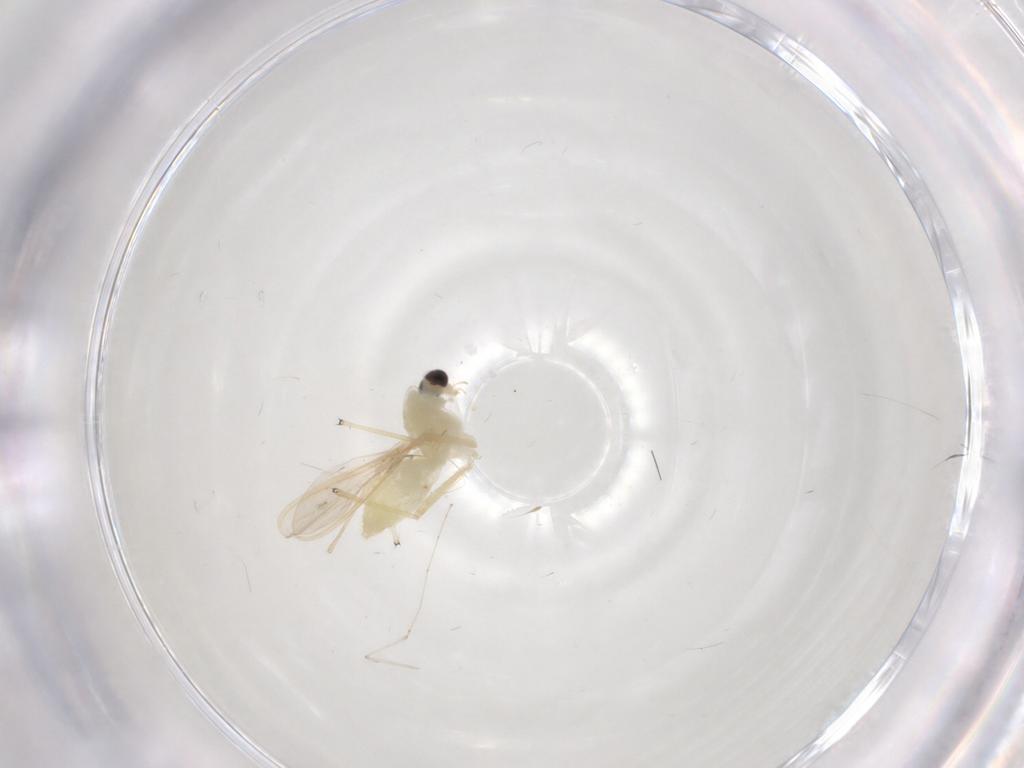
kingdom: Animalia
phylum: Arthropoda
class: Insecta
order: Diptera
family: Chironomidae
